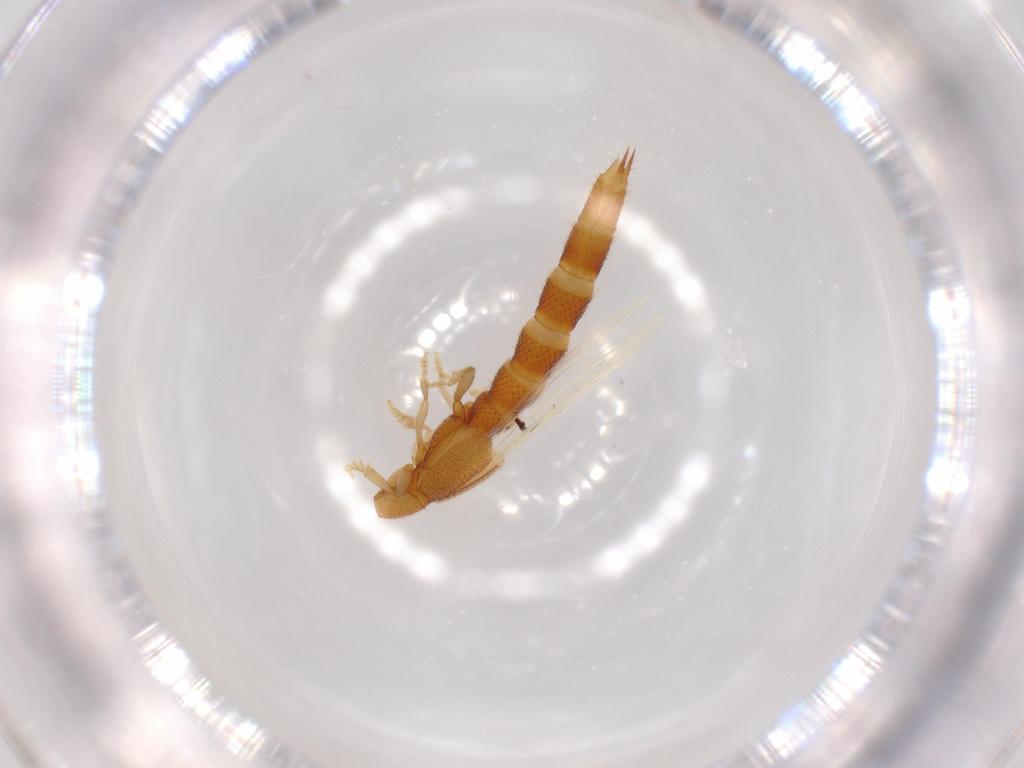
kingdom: Animalia
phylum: Arthropoda
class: Insecta
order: Coleoptera
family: Staphylinidae
